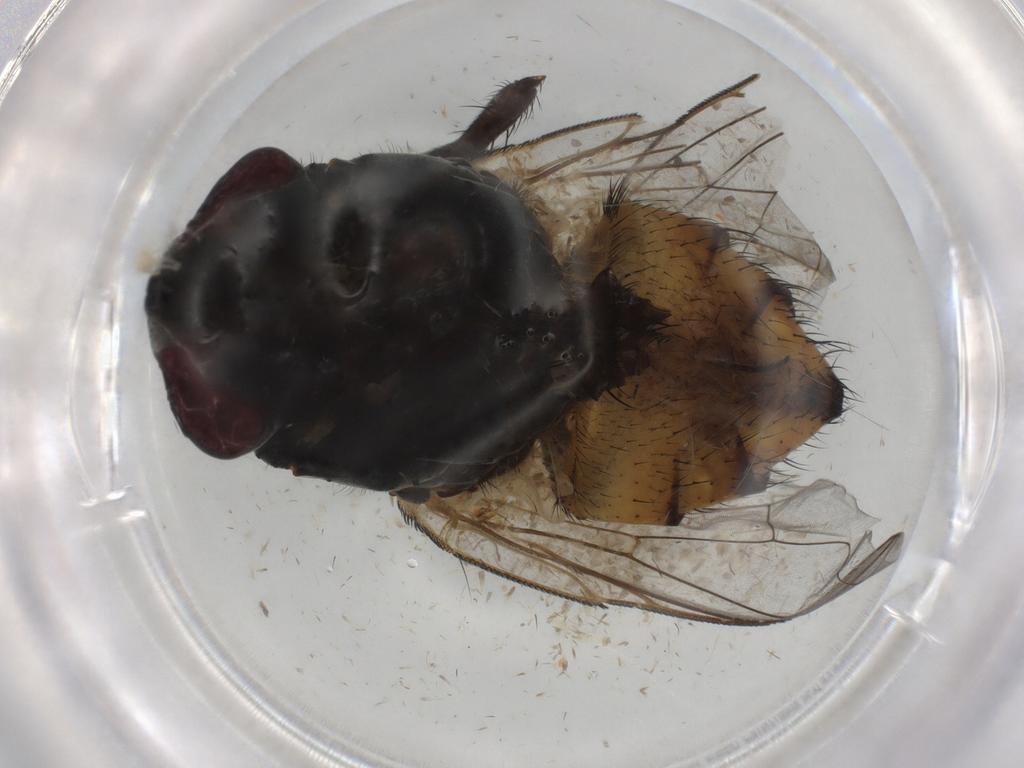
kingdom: Animalia
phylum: Arthropoda
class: Insecta
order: Diptera
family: Chironomidae
